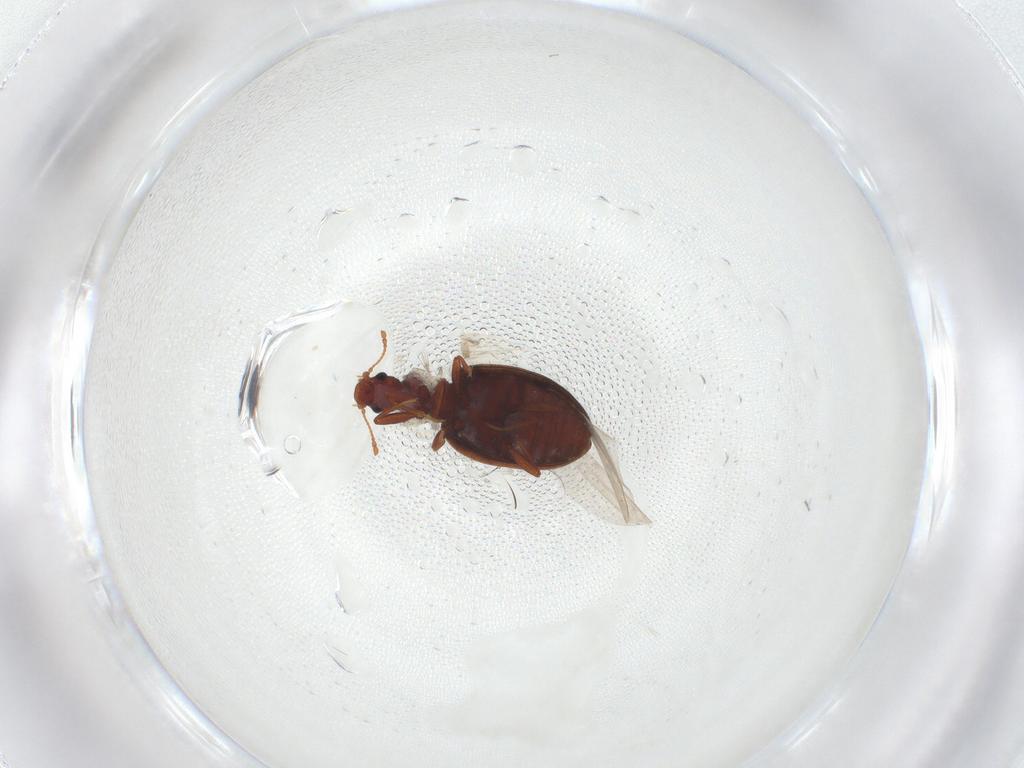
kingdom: Animalia
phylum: Arthropoda
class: Insecta
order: Coleoptera
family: Latridiidae
